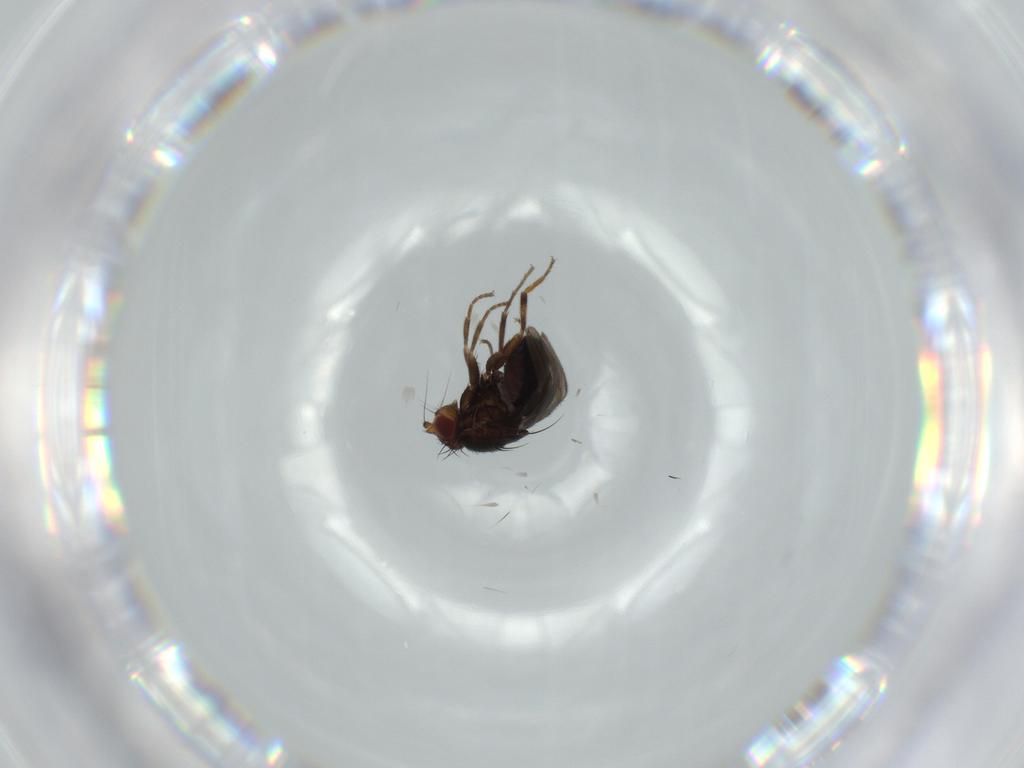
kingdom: Animalia
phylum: Arthropoda
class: Insecta
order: Diptera
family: Sphaeroceridae
